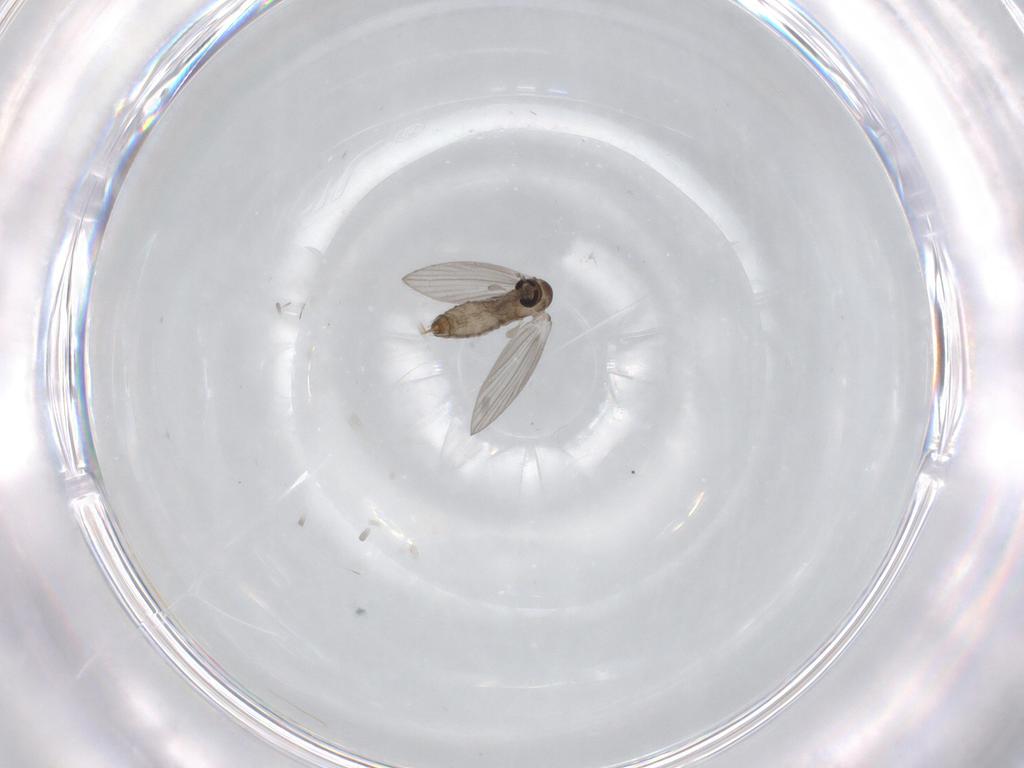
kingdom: Animalia
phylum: Arthropoda
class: Insecta
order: Diptera
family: Psychodidae
